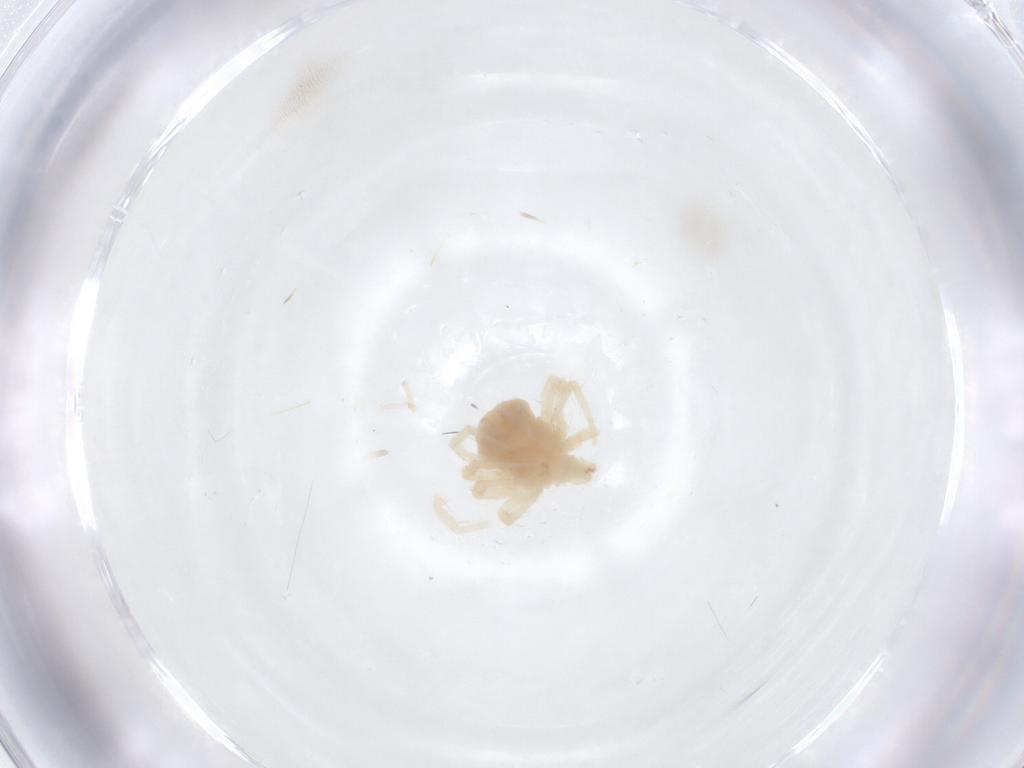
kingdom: Animalia
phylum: Arthropoda
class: Arachnida
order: Trombidiformes
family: Anystidae
